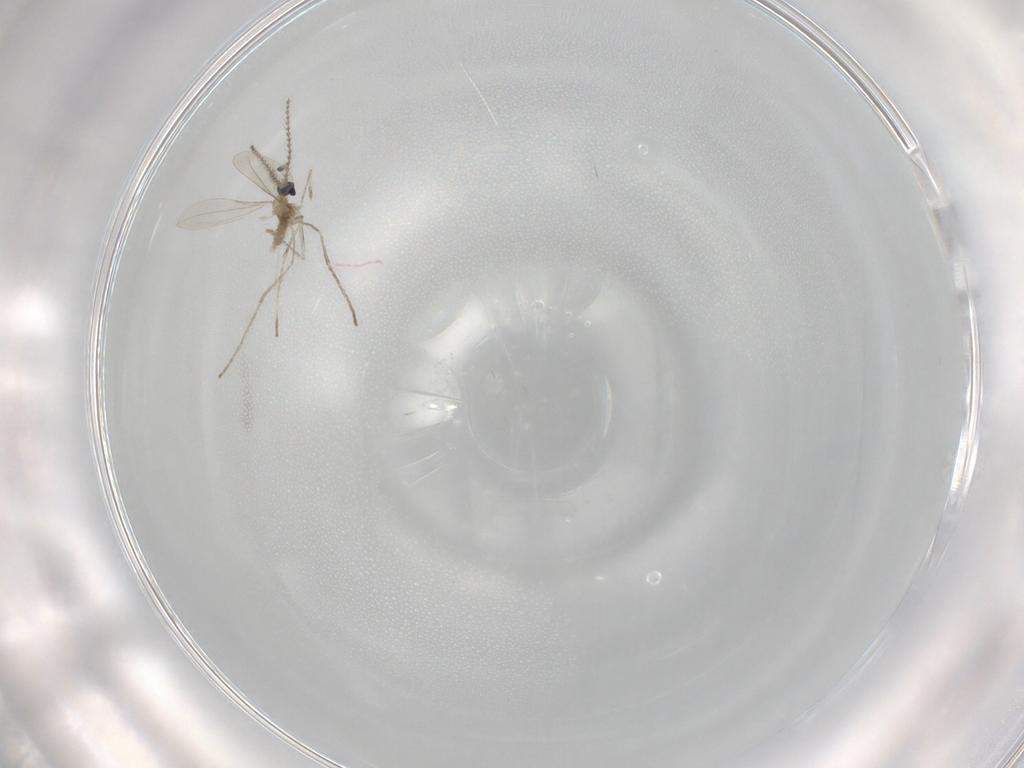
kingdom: Animalia
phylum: Arthropoda
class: Insecta
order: Diptera
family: Cecidomyiidae
